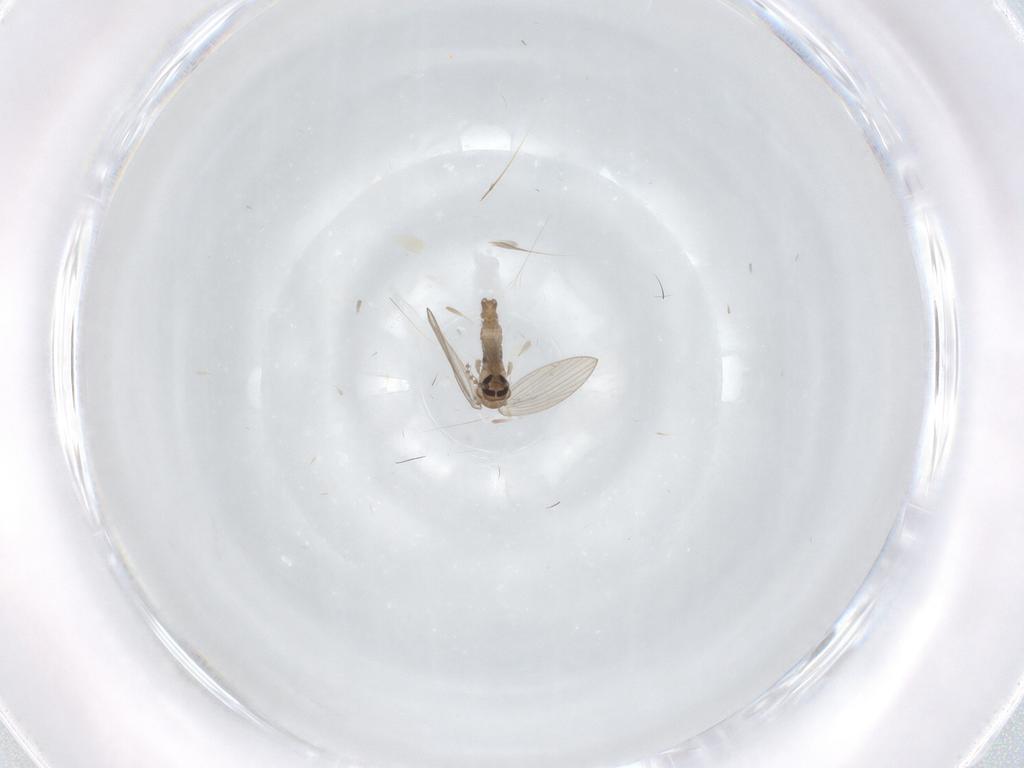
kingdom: Animalia
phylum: Arthropoda
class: Insecta
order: Diptera
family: Psychodidae
